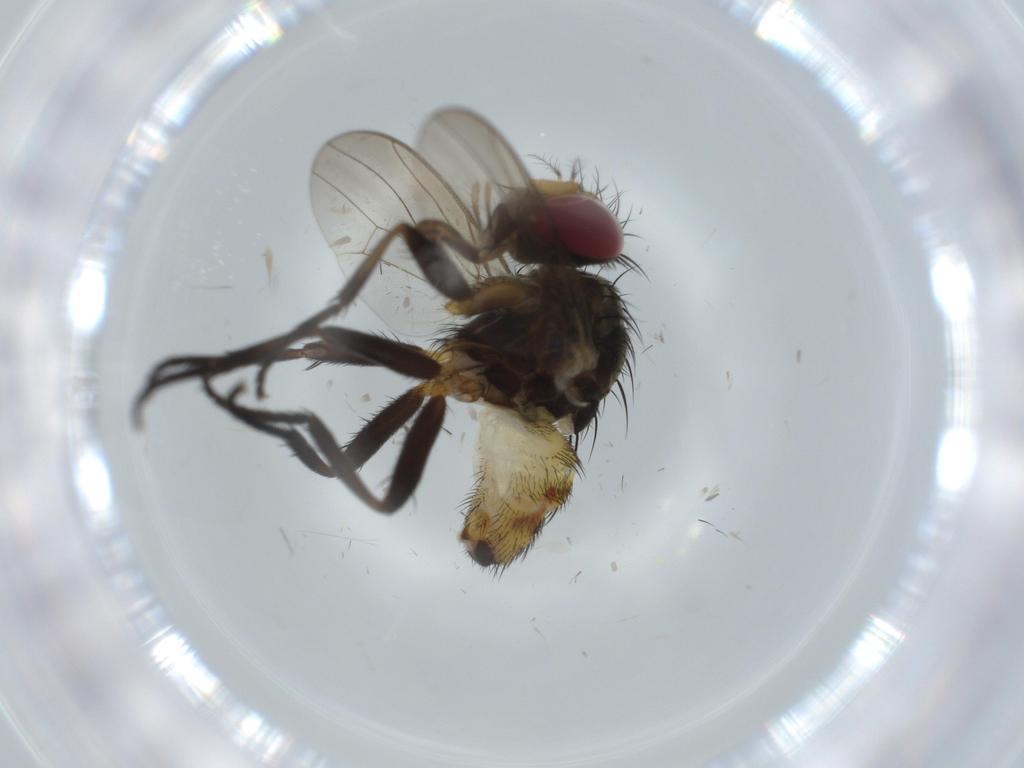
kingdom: Animalia
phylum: Arthropoda
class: Insecta
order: Diptera
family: Anthomyiidae
